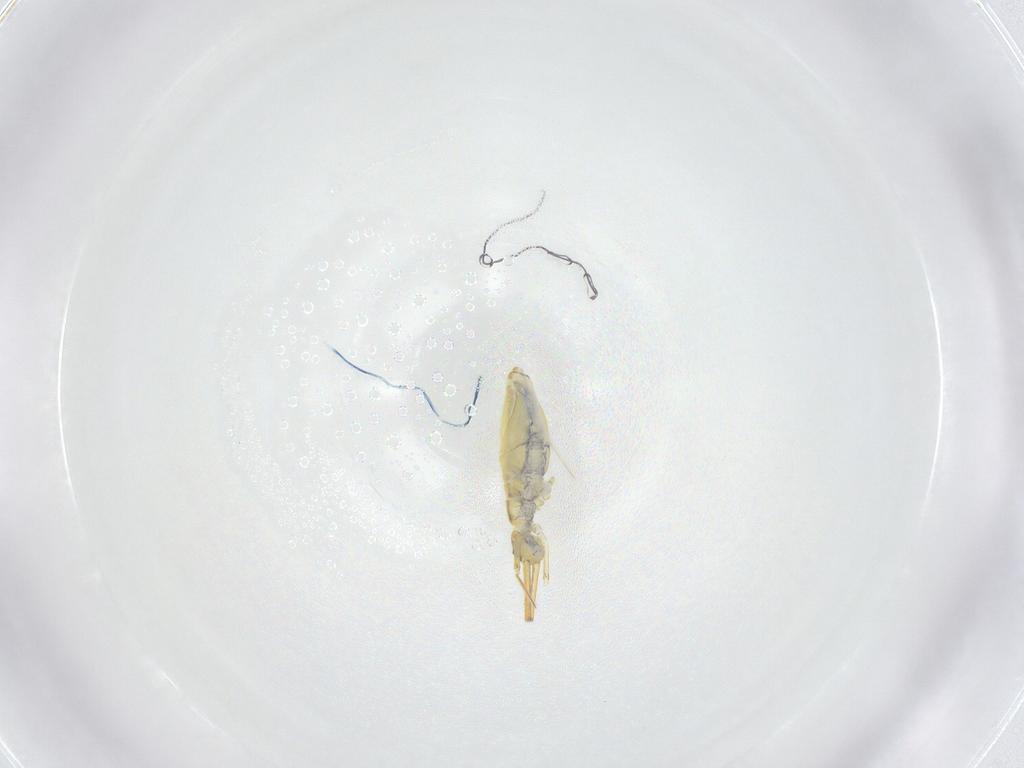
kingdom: Animalia
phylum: Arthropoda
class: Collembola
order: Entomobryomorpha
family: Entomobryidae
